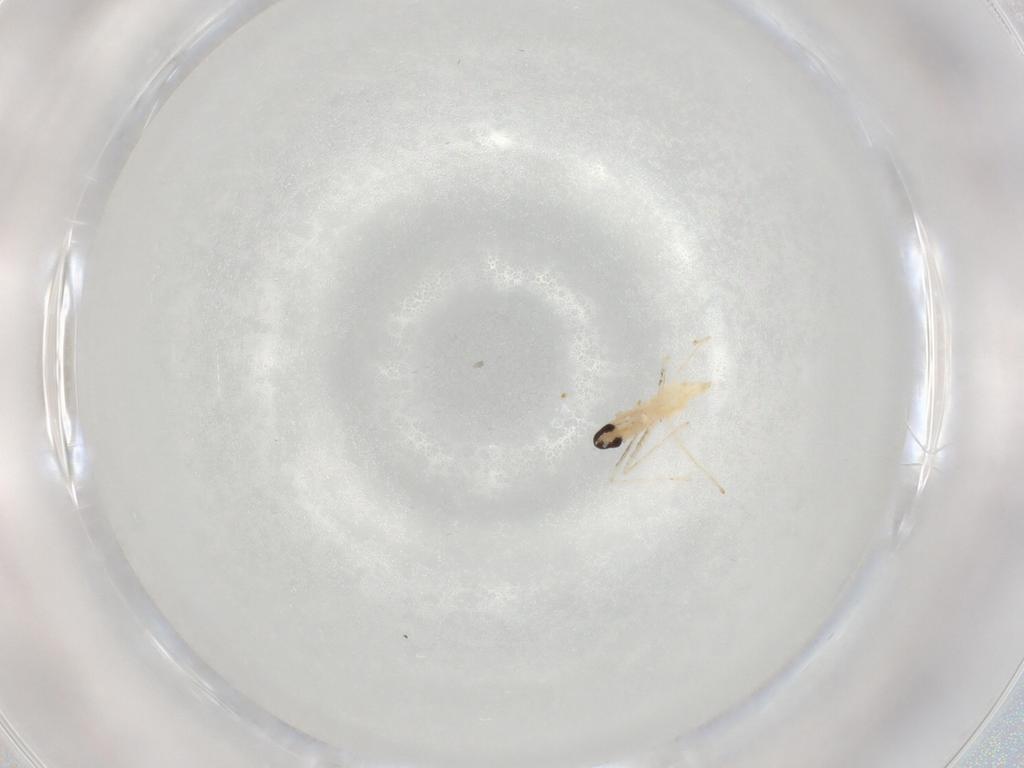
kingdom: Animalia
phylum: Arthropoda
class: Insecta
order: Diptera
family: Cecidomyiidae
